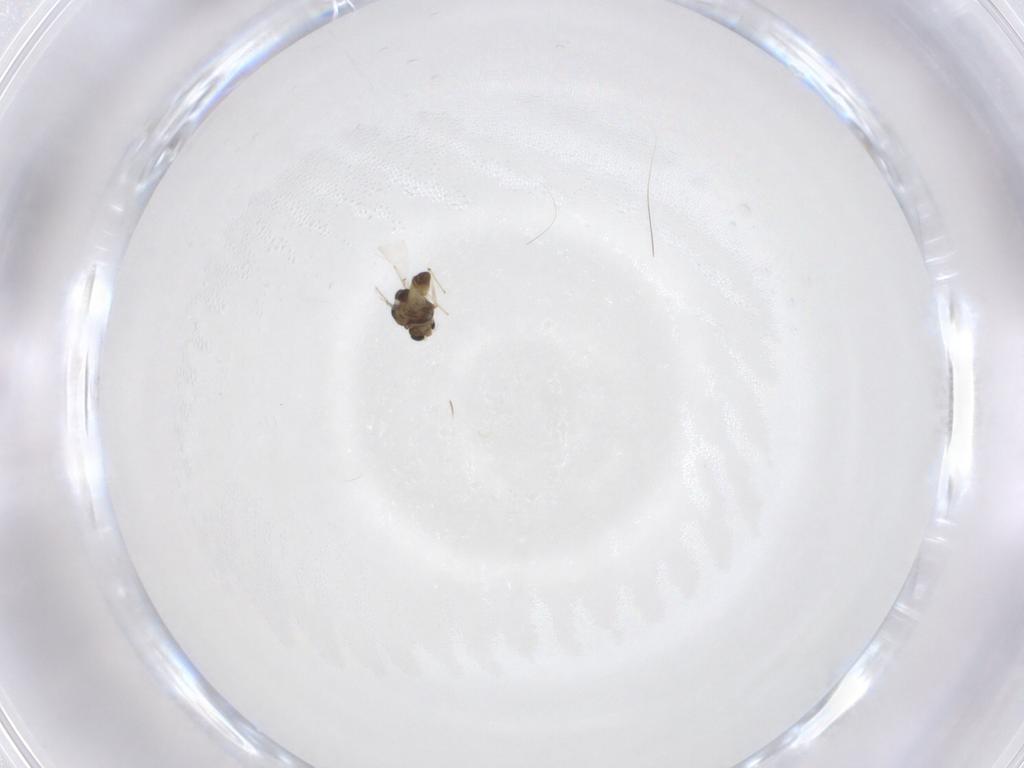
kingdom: Animalia
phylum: Arthropoda
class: Insecta
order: Diptera
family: Chironomidae
